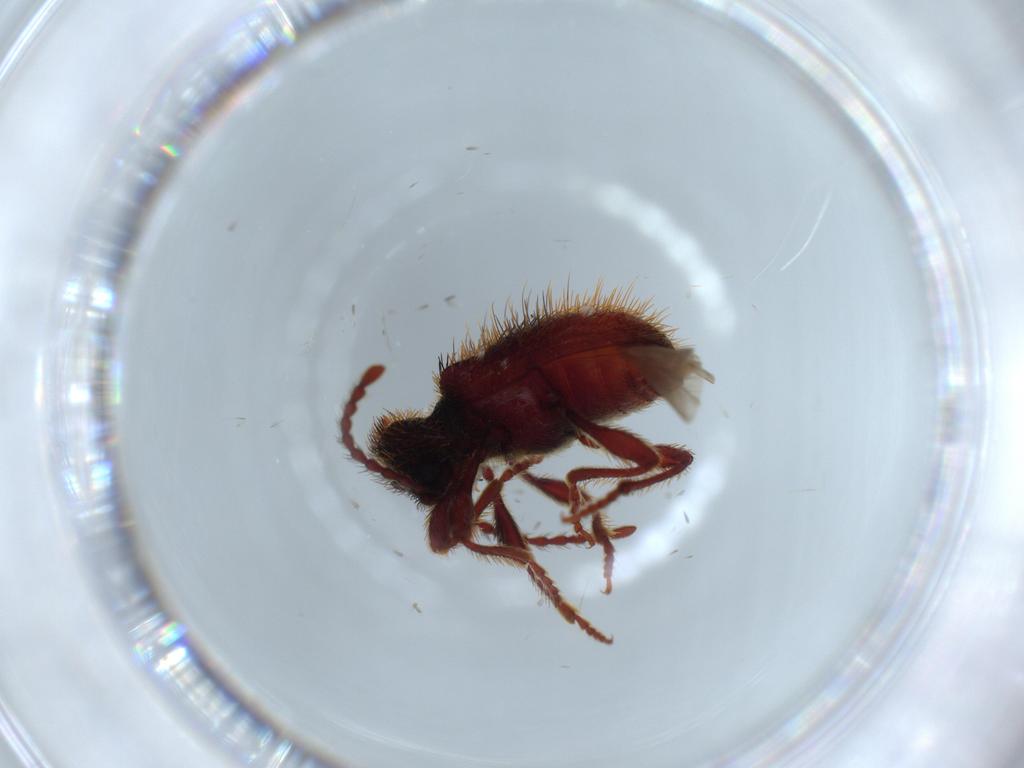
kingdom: Animalia
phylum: Arthropoda
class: Insecta
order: Coleoptera
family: Ptinidae
